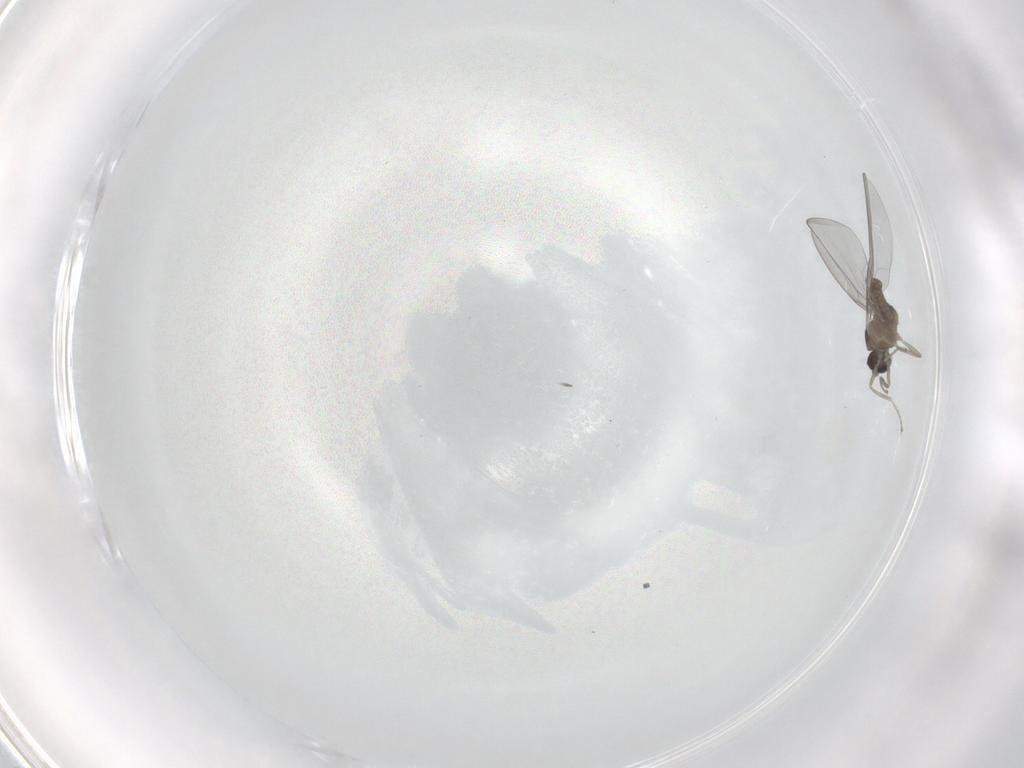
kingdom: Animalia
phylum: Arthropoda
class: Insecta
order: Diptera
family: Cecidomyiidae
